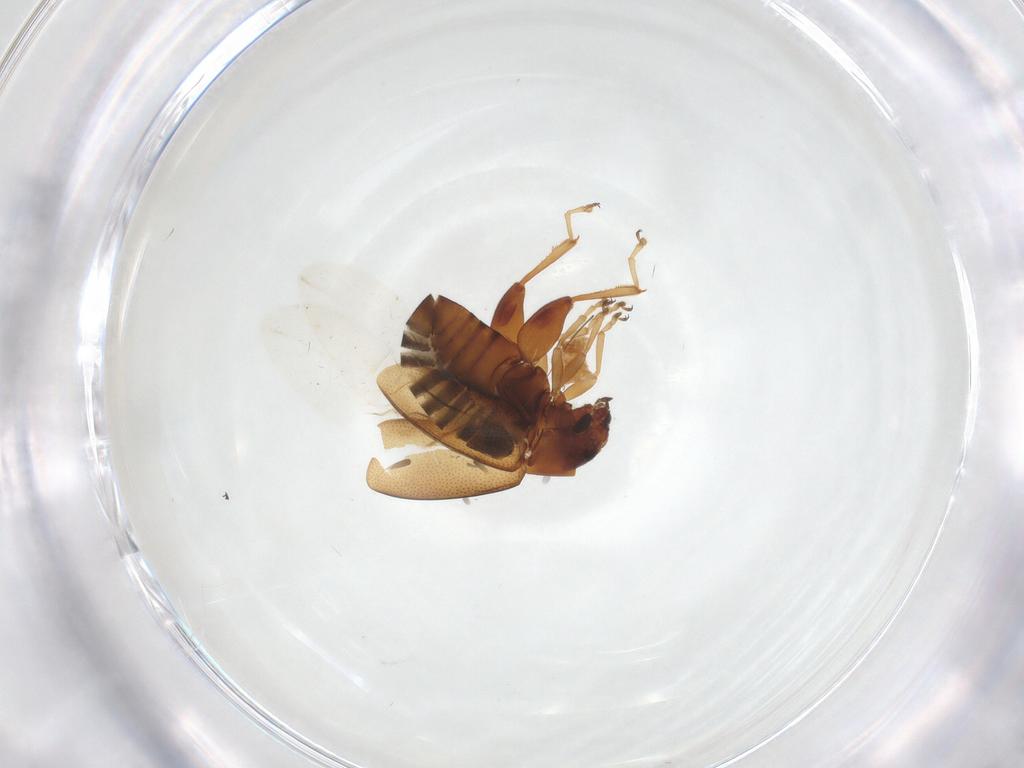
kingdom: Animalia
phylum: Arthropoda
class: Insecta
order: Coleoptera
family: Chrysomelidae
